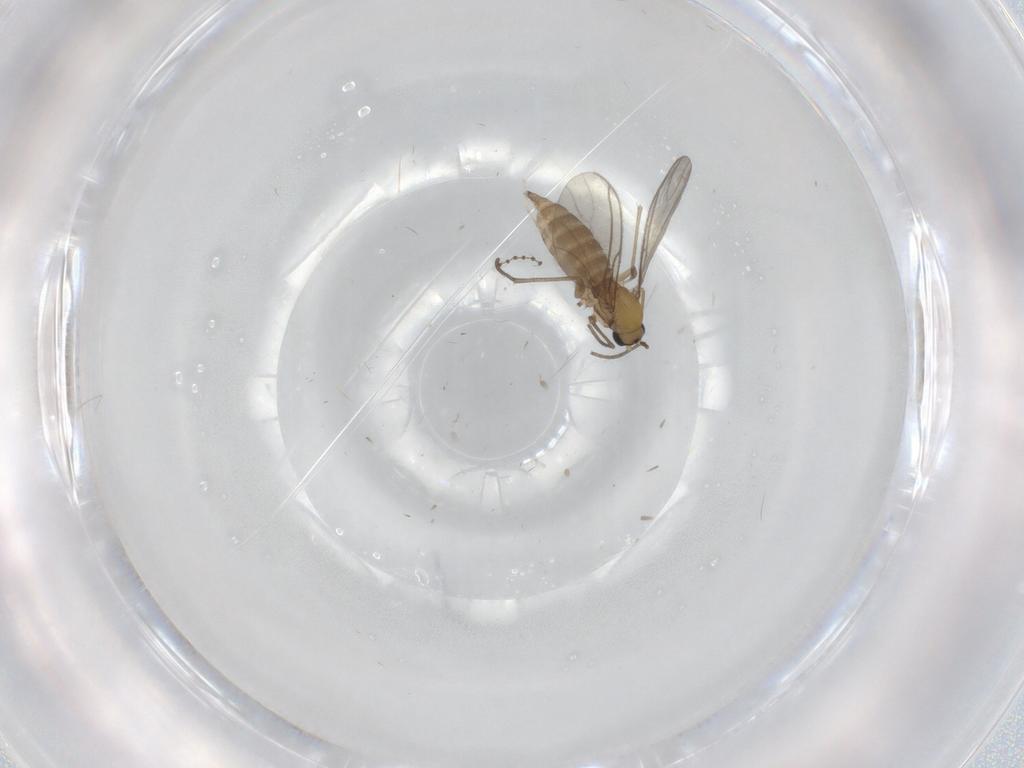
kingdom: Animalia
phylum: Arthropoda
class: Insecta
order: Diptera
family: Sciaridae
